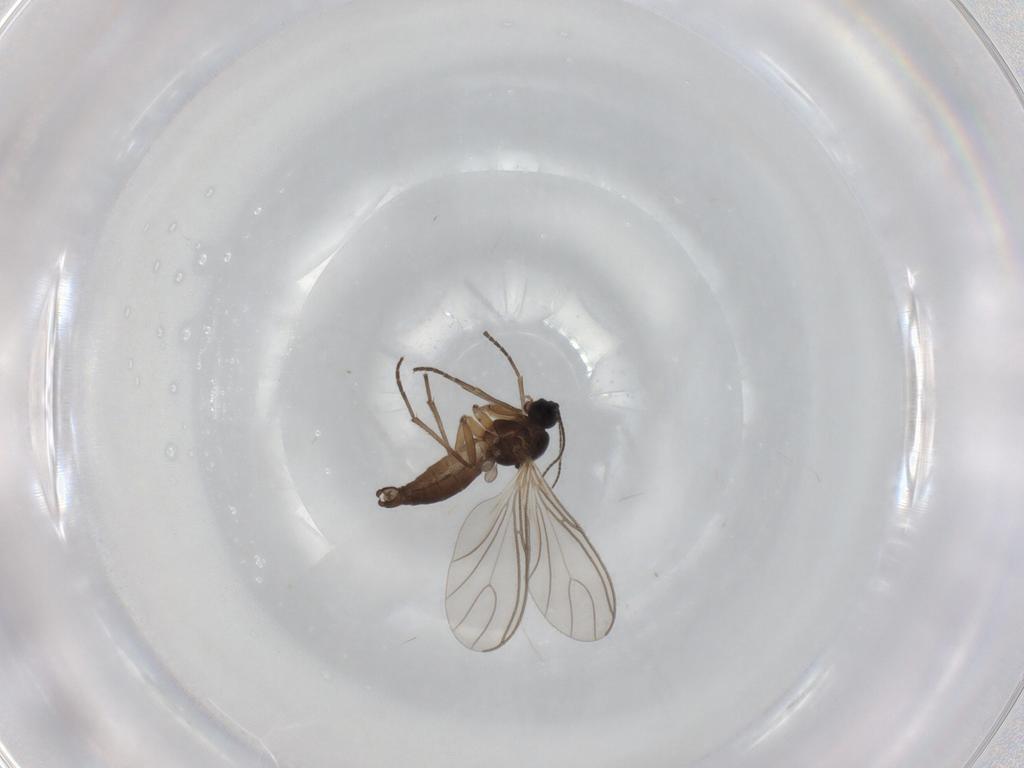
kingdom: Animalia
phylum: Arthropoda
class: Insecta
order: Diptera
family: Sciaridae
